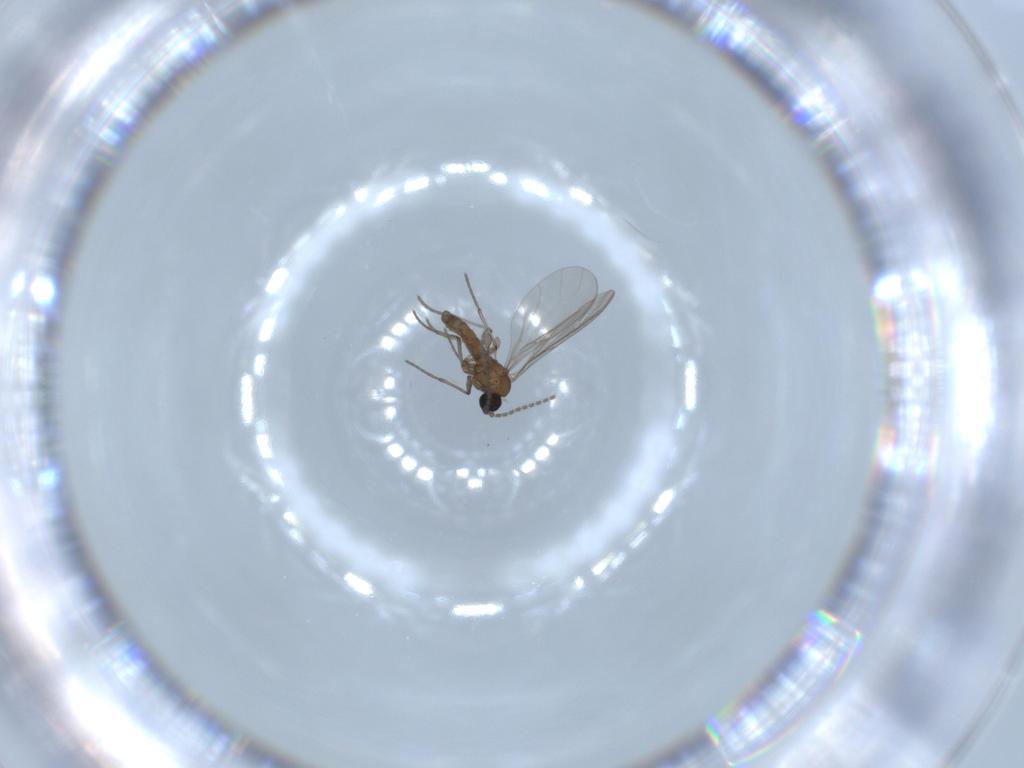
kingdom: Animalia
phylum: Arthropoda
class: Insecta
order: Diptera
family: Sciaridae
